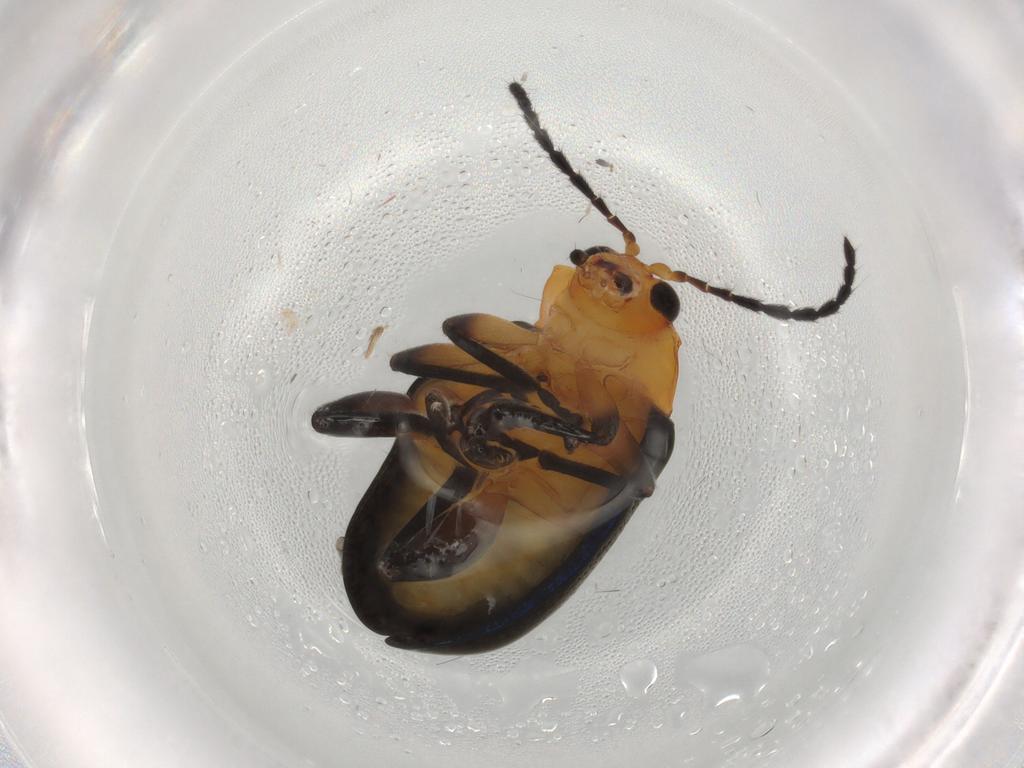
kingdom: Animalia
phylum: Arthropoda
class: Insecta
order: Coleoptera
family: Chrysomelidae
